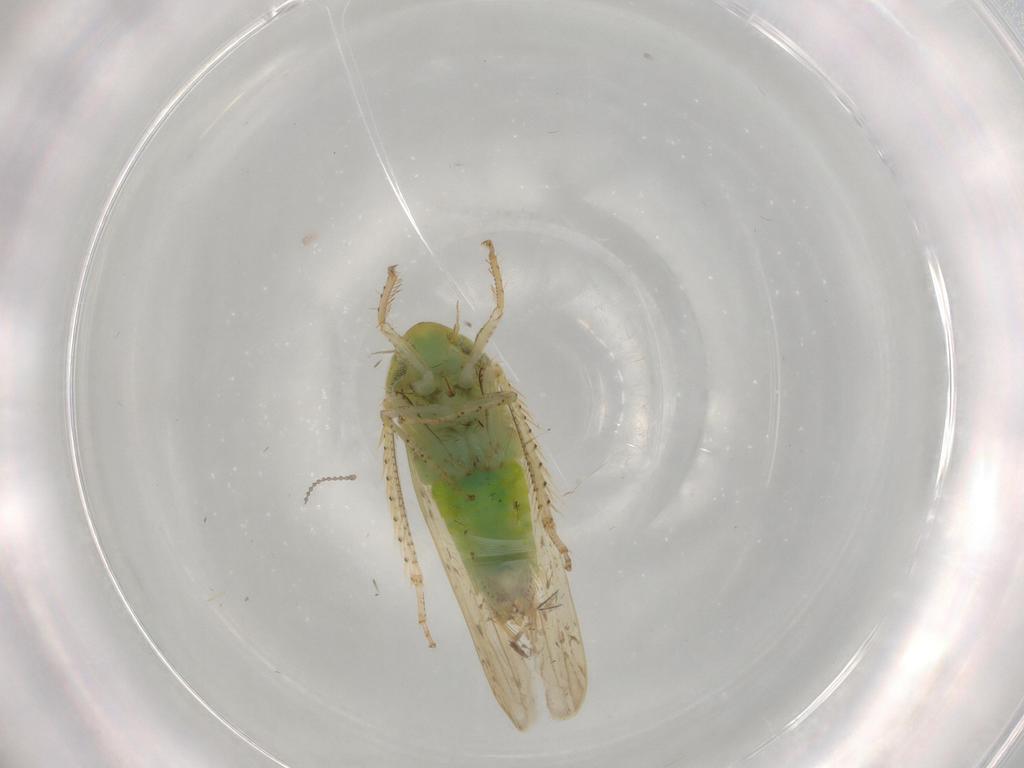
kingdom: Animalia
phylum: Arthropoda
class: Insecta
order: Hemiptera
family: Cicadellidae
